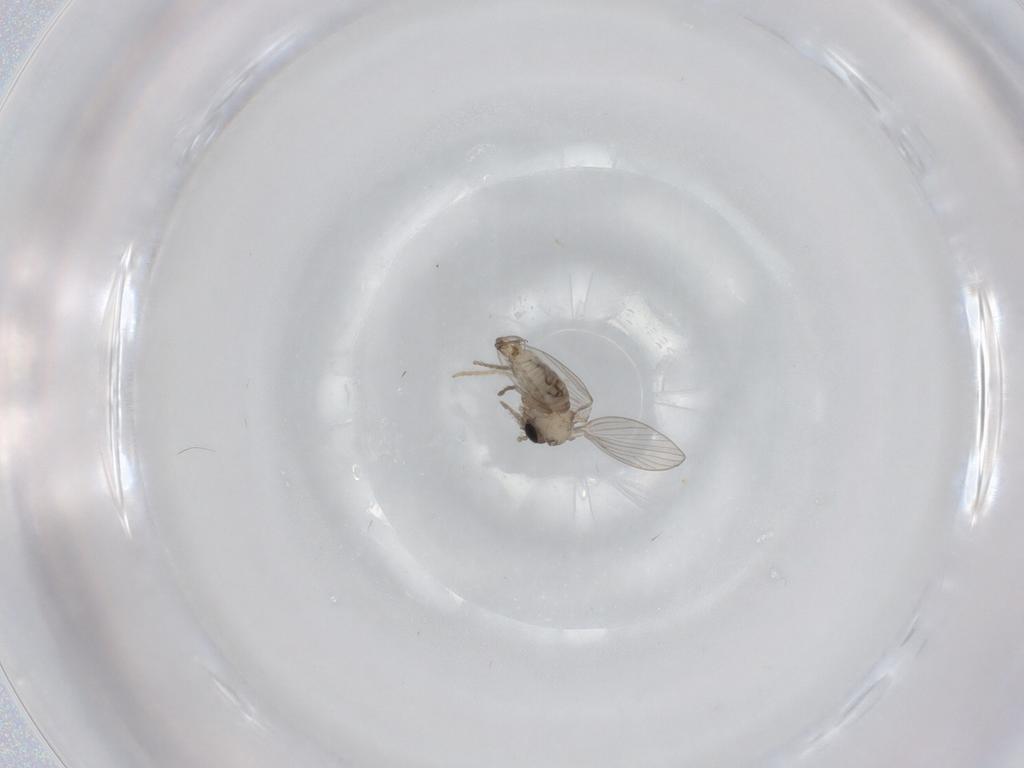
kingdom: Animalia
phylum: Arthropoda
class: Insecta
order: Diptera
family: Psychodidae
